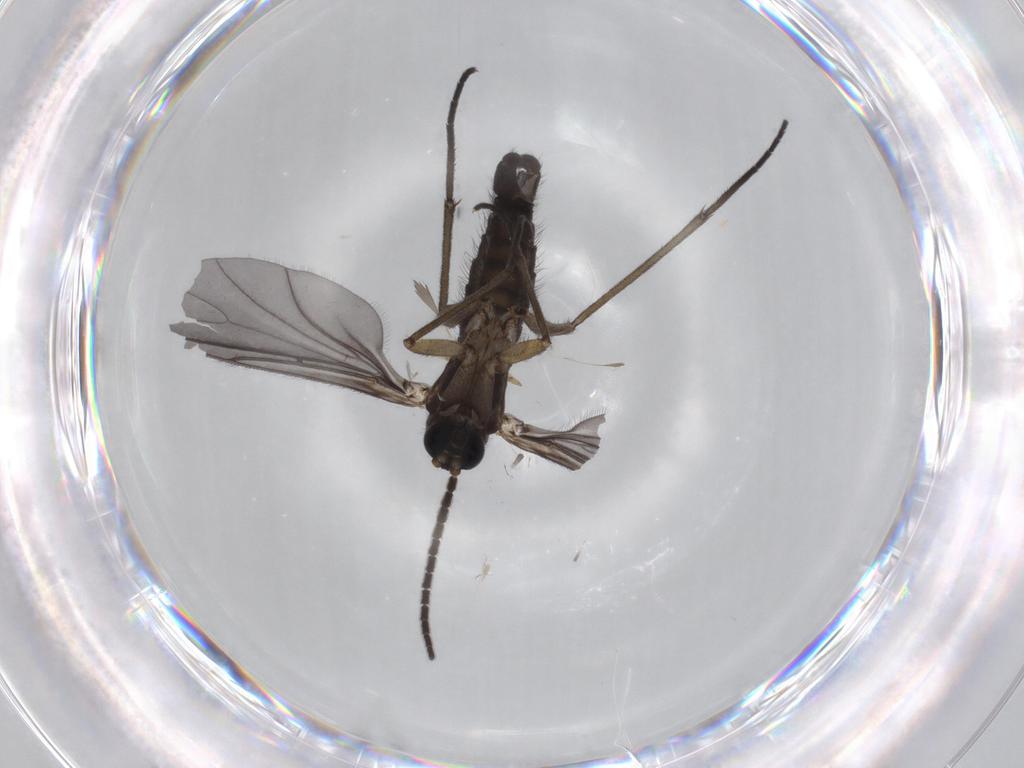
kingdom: Animalia
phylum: Arthropoda
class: Insecta
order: Diptera
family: Sciaridae
